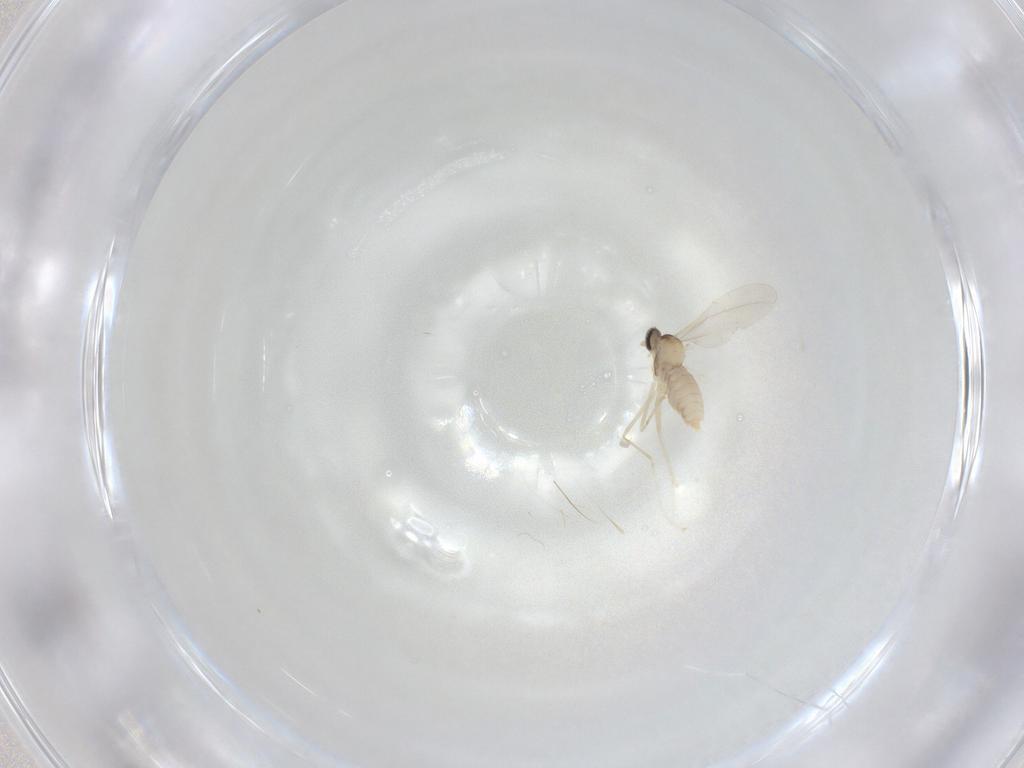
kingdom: Animalia
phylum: Arthropoda
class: Insecta
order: Diptera
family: Cecidomyiidae
